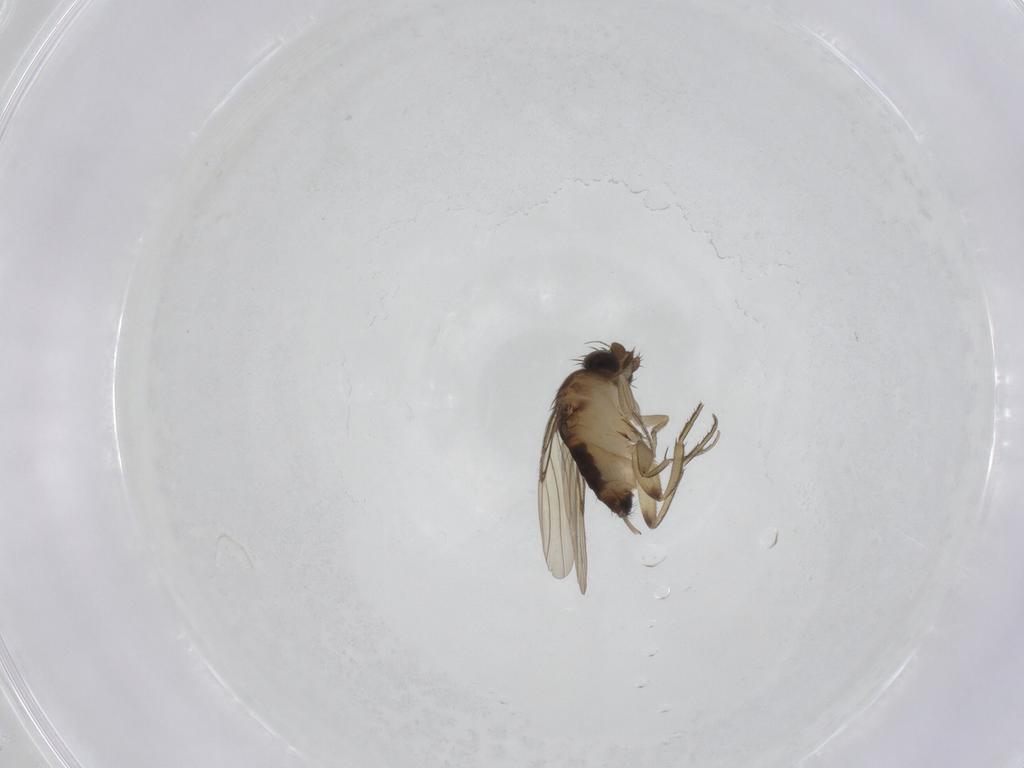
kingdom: Animalia
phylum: Arthropoda
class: Insecta
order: Diptera
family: Phoridae
